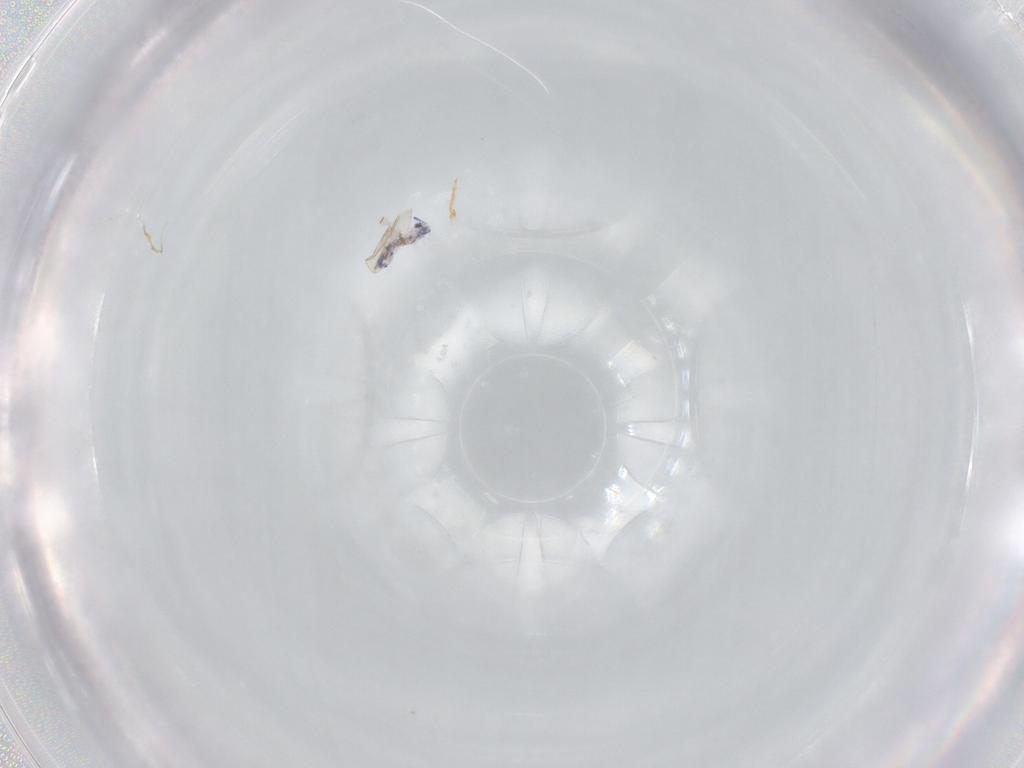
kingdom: Animalia
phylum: Arthropoda
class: Collembola
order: Entomobryomorpha
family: Entomobryidae
